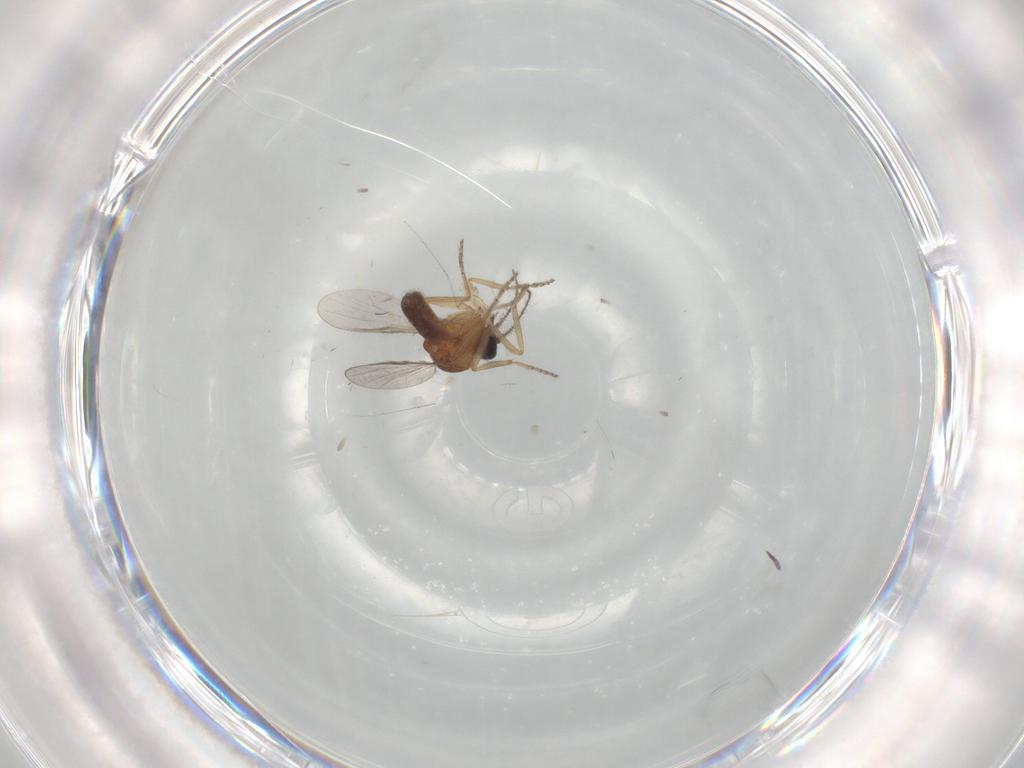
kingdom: Animalia
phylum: Arthropoda
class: Insecta
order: Diptera
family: Ceratopogonidae
